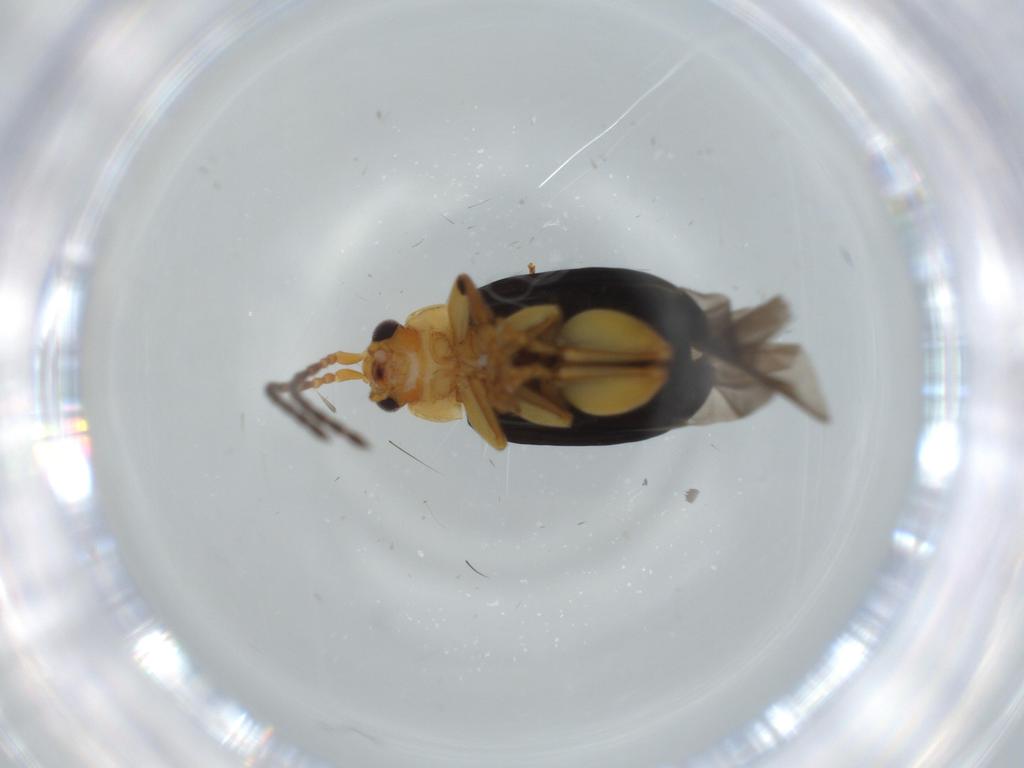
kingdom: Animalia
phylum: Arthropoda
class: Insecta
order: Coleoptera
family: Chrysomelidae
